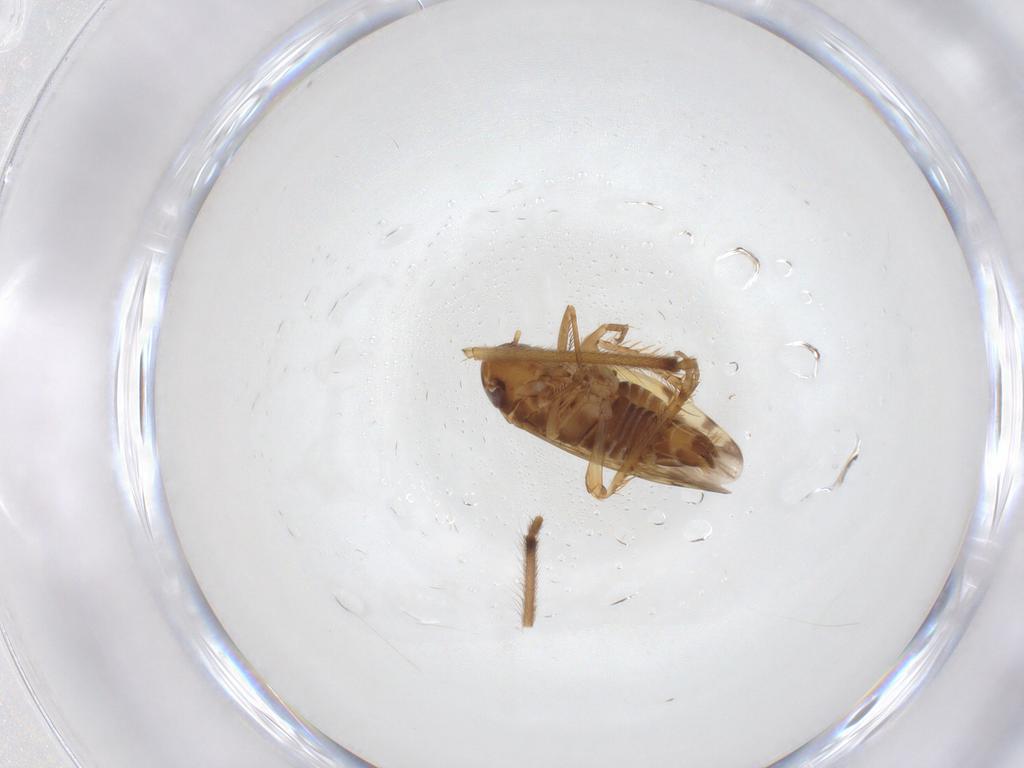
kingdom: Animalia
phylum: Arthropoda
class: Insecta
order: Hemiptera
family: Cicadellidae
